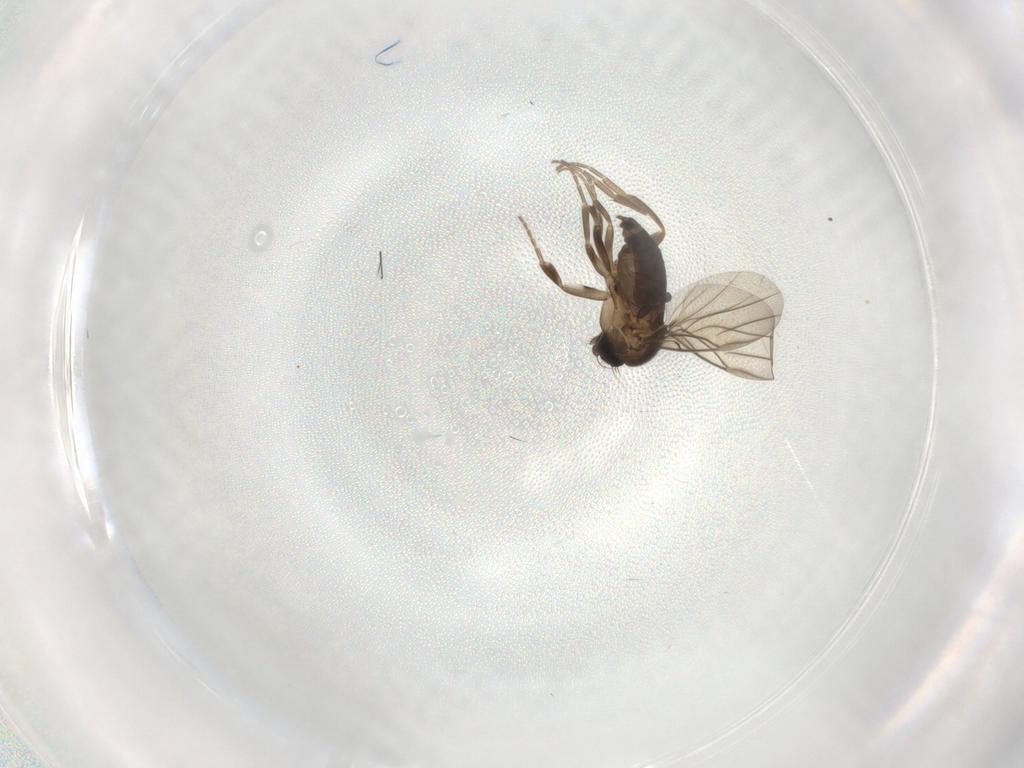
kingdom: Animalia
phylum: Arthropoda
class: Insecta
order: Diptera
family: Phoridae
